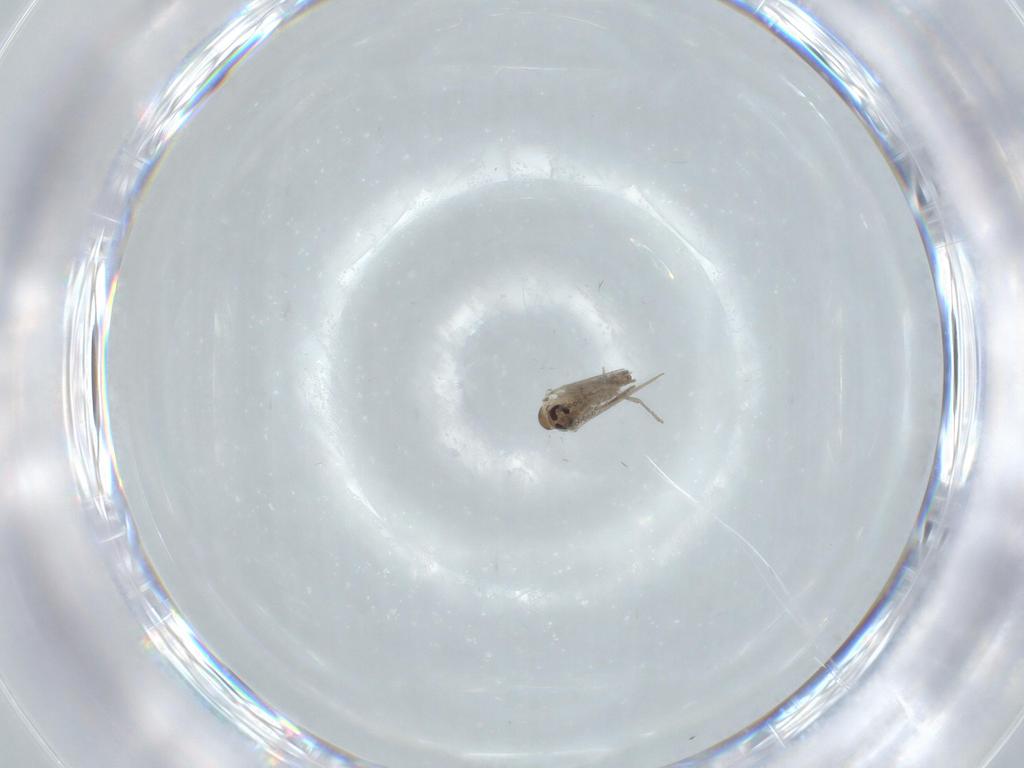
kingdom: Animalia
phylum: Arthropoda
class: Insecta
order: Diptera
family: Psychodidae
